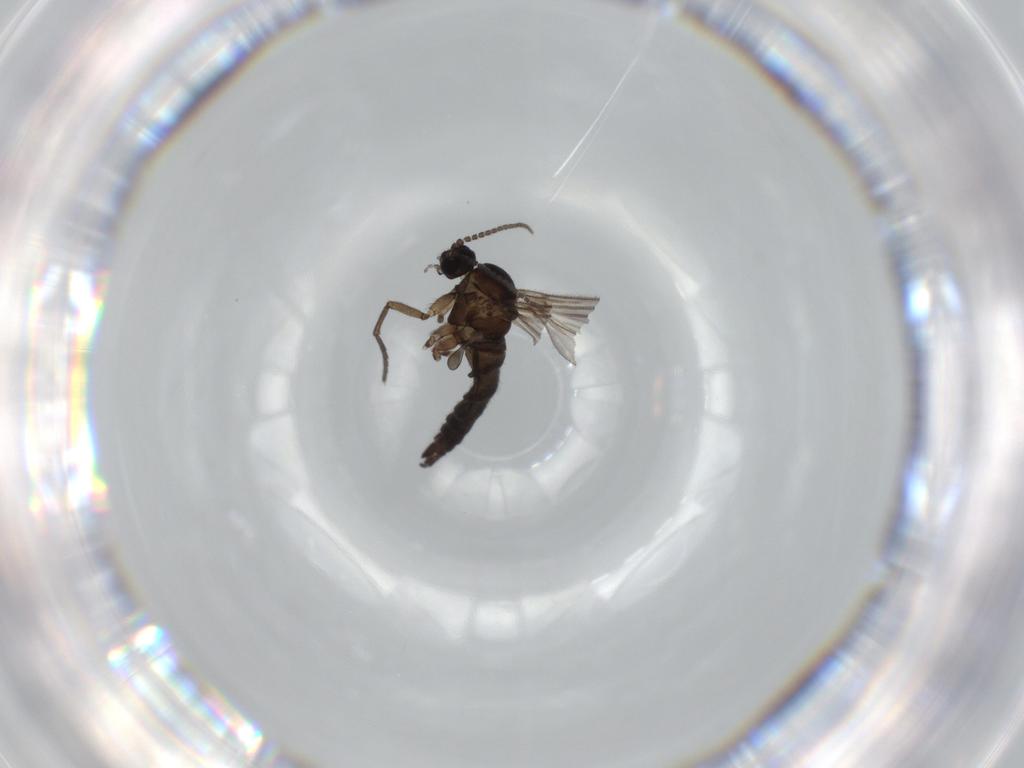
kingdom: Animalia
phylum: Arthropoda
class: Insecta
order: Diptera
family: Sciaridae
